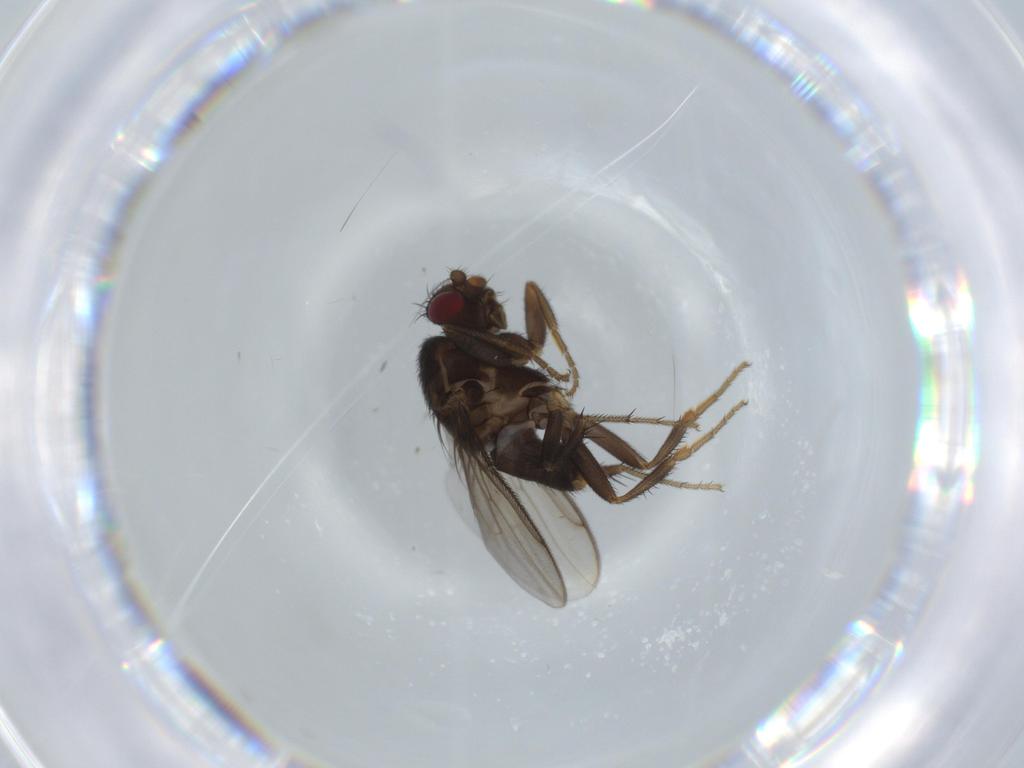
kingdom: Animalia
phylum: Arthropoda
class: Insecta
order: Diptera
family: Sphaeroceridae
